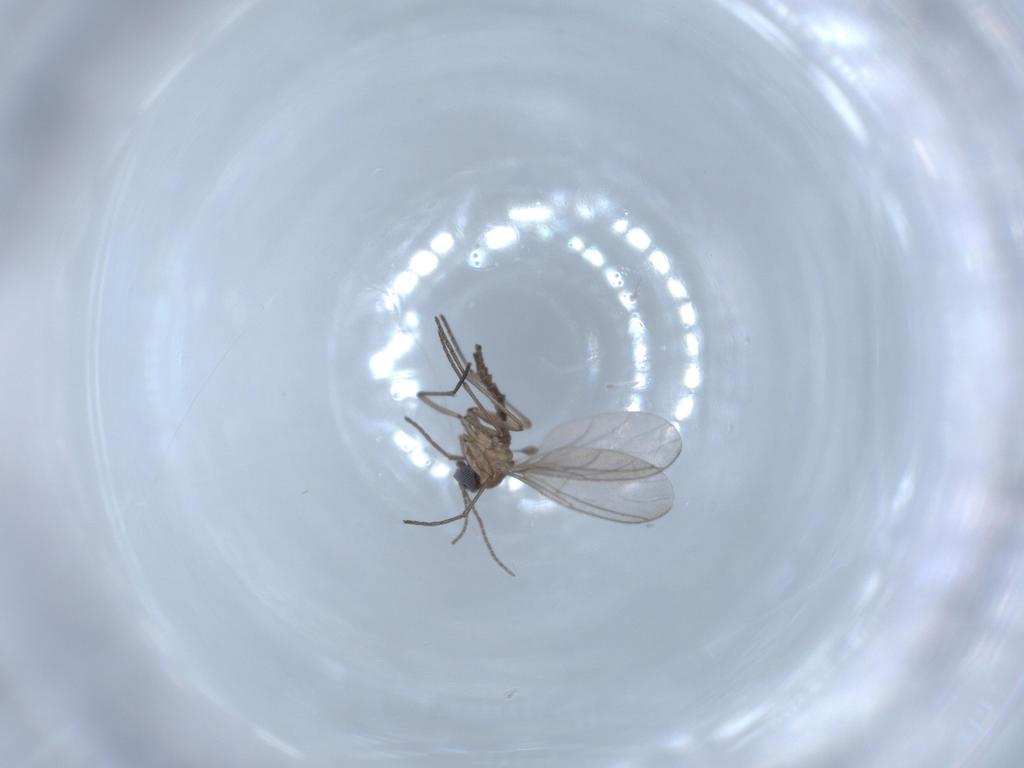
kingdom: Animalia
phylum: Arthropoda
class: Insecta
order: Diptera
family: Sciaridae
